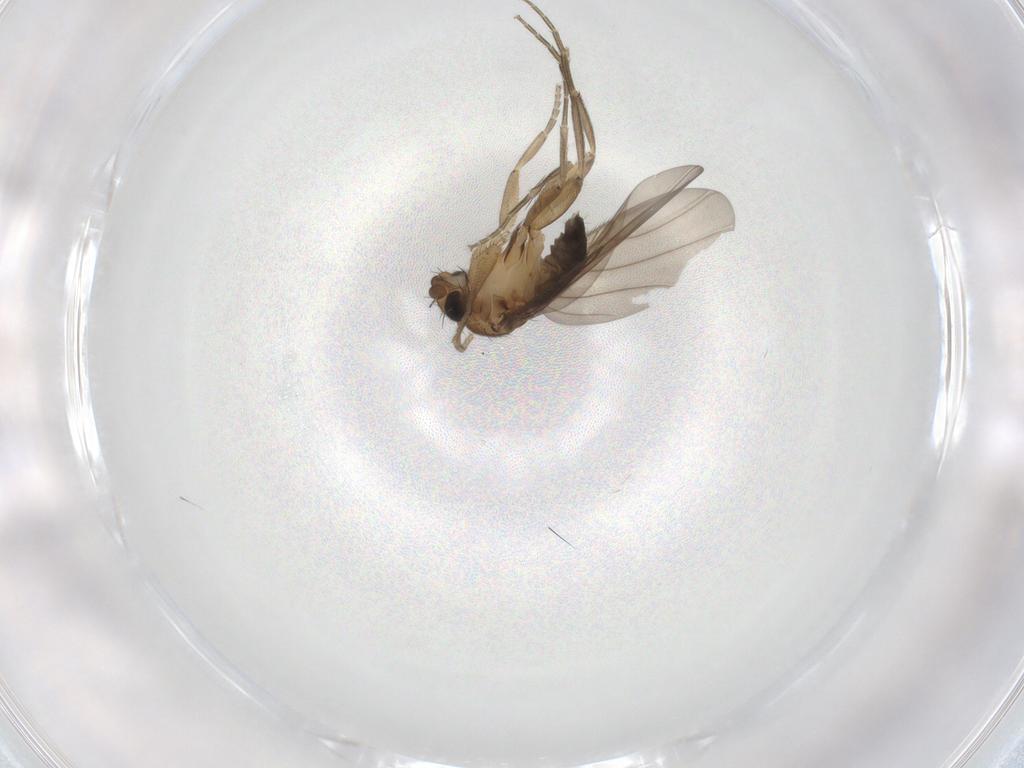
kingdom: Animalia
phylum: Arthropoda
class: Insecta
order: Diptera
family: Phoridae
